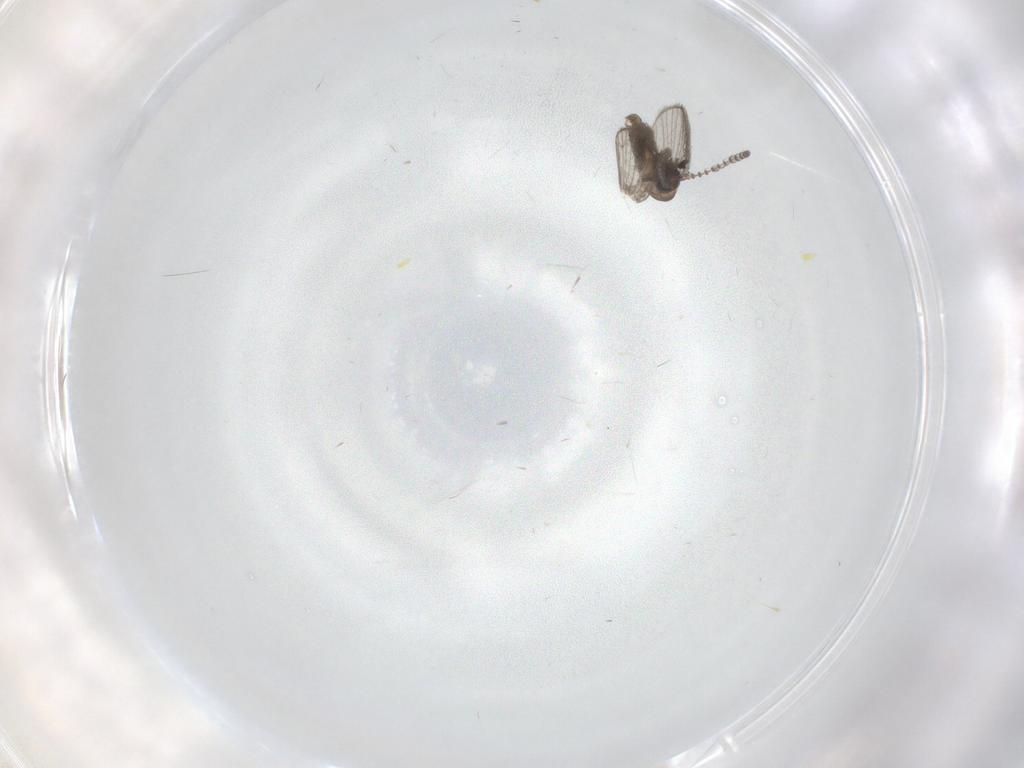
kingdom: Animalia
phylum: Arthropoda
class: Insecta
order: Diptera
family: Psychodidae
